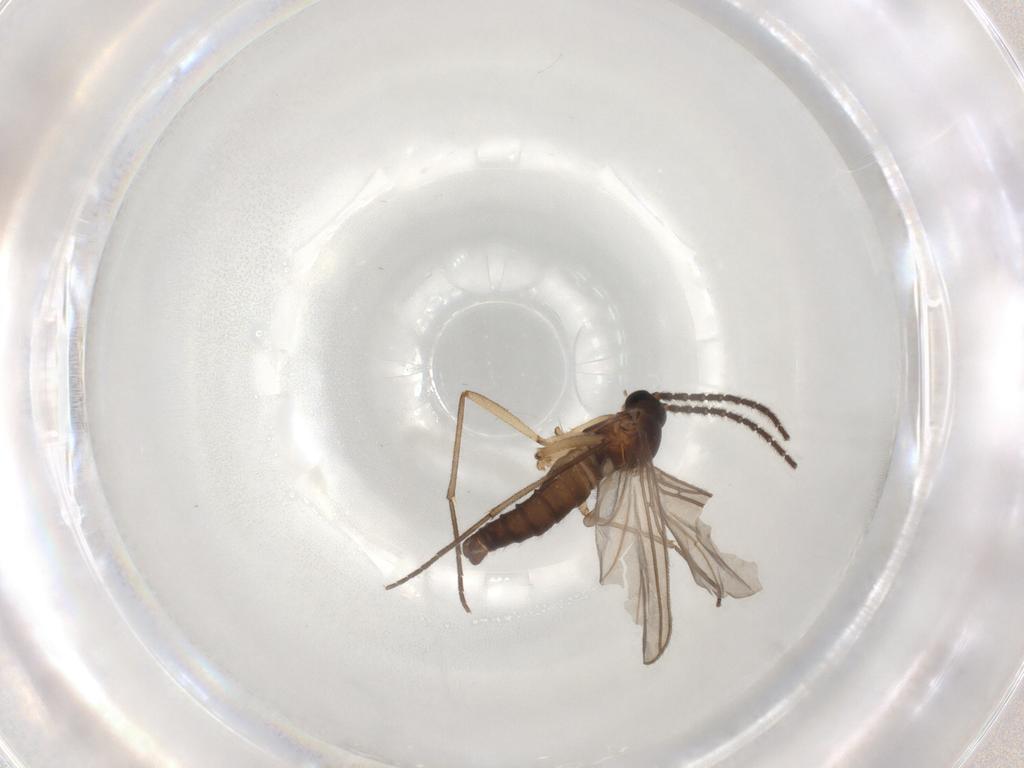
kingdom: Animalia
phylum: Arthropoda
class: Insecta
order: Diptera
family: Sciaridae
